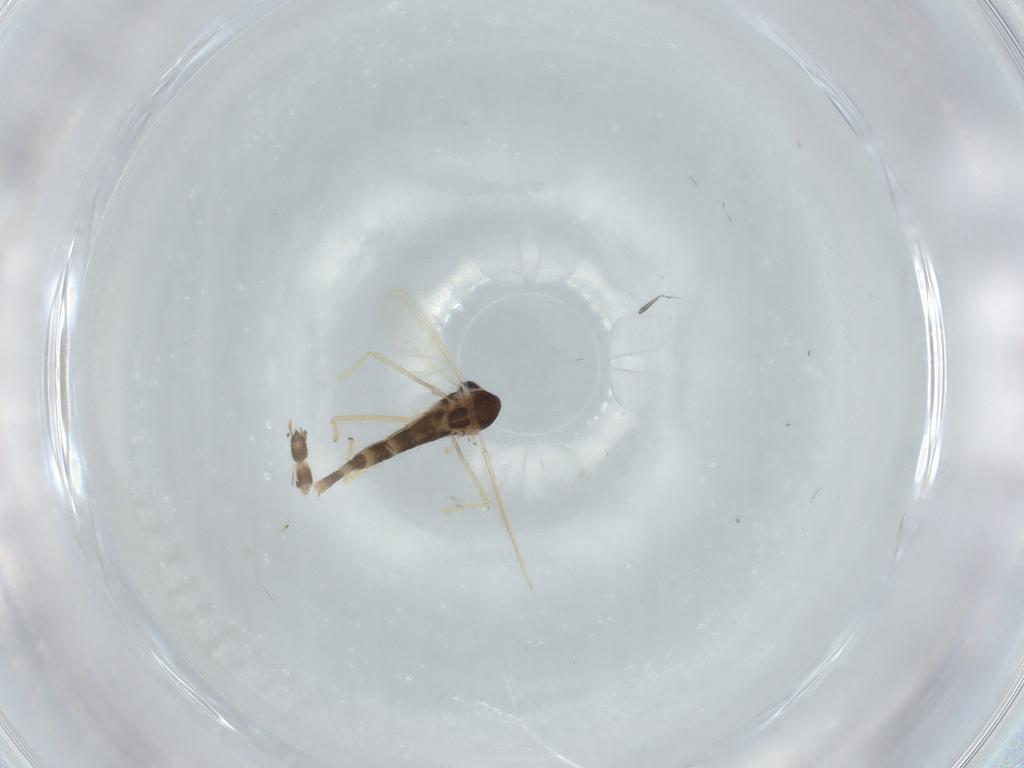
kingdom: Animalia
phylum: Arthropoda
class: Insecta
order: Diptera
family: Chironomidae
